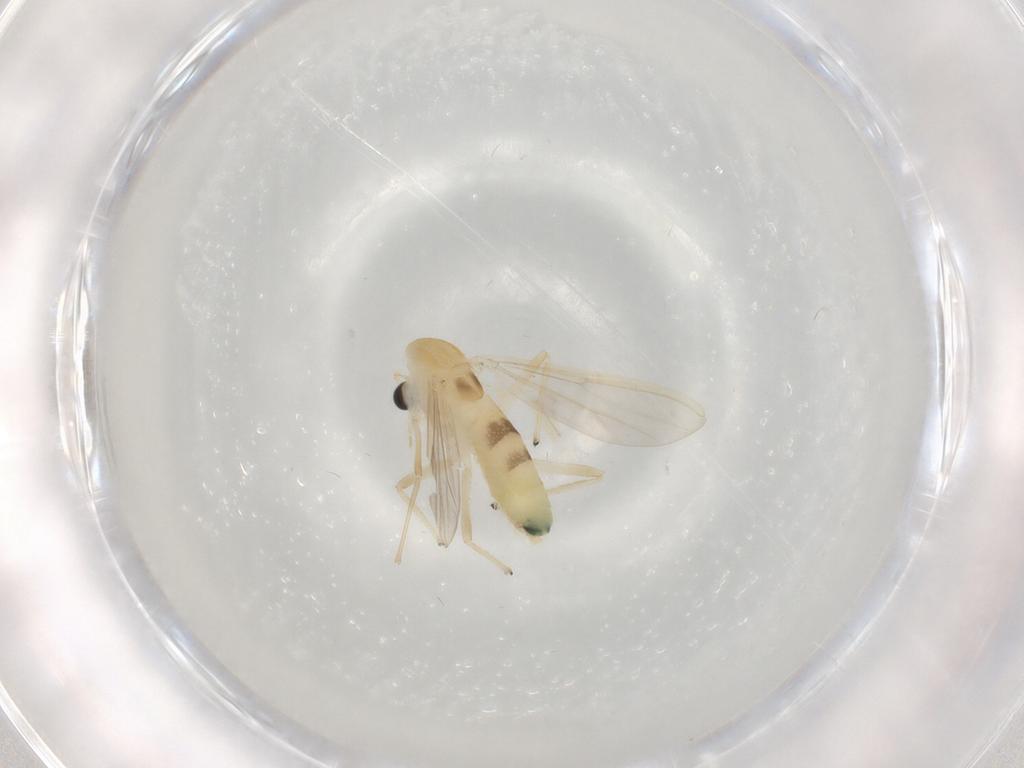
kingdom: Animalia
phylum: Arthropoda
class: Insecta
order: Diptera
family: Chironomidae
